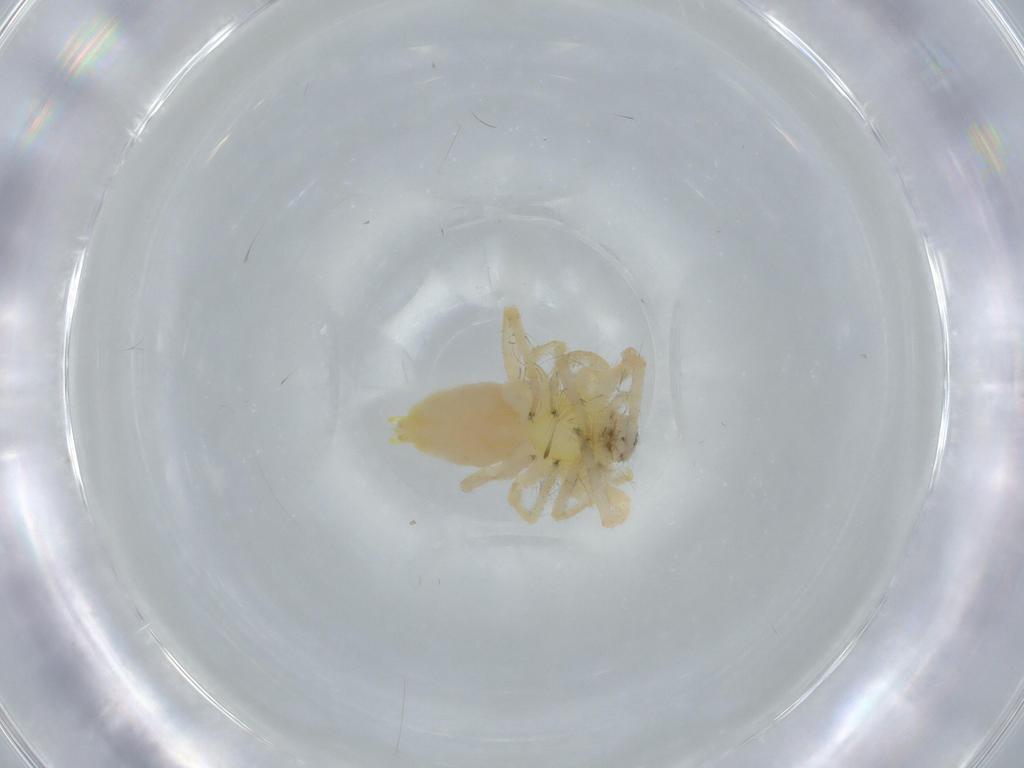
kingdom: Animalia
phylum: Arthropoda
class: Arachnida
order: Araneae
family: Anyphaenidae
